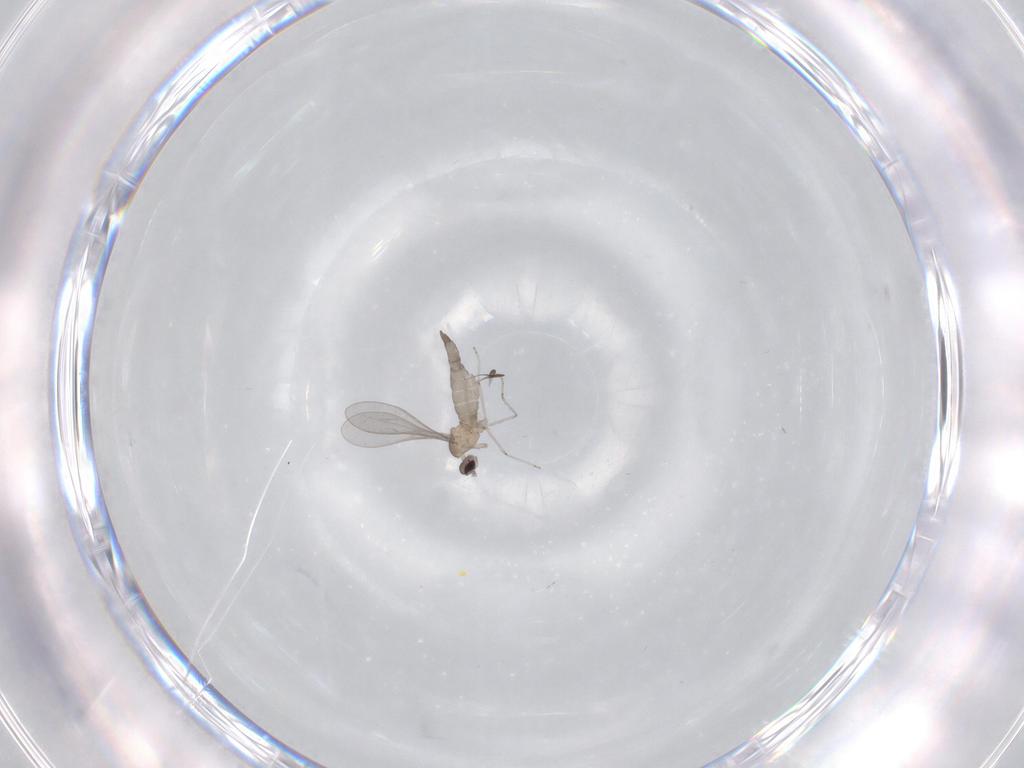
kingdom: Animalia
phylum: Arthropoda
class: Insecta
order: Diptera
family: Cecidomyiidae
